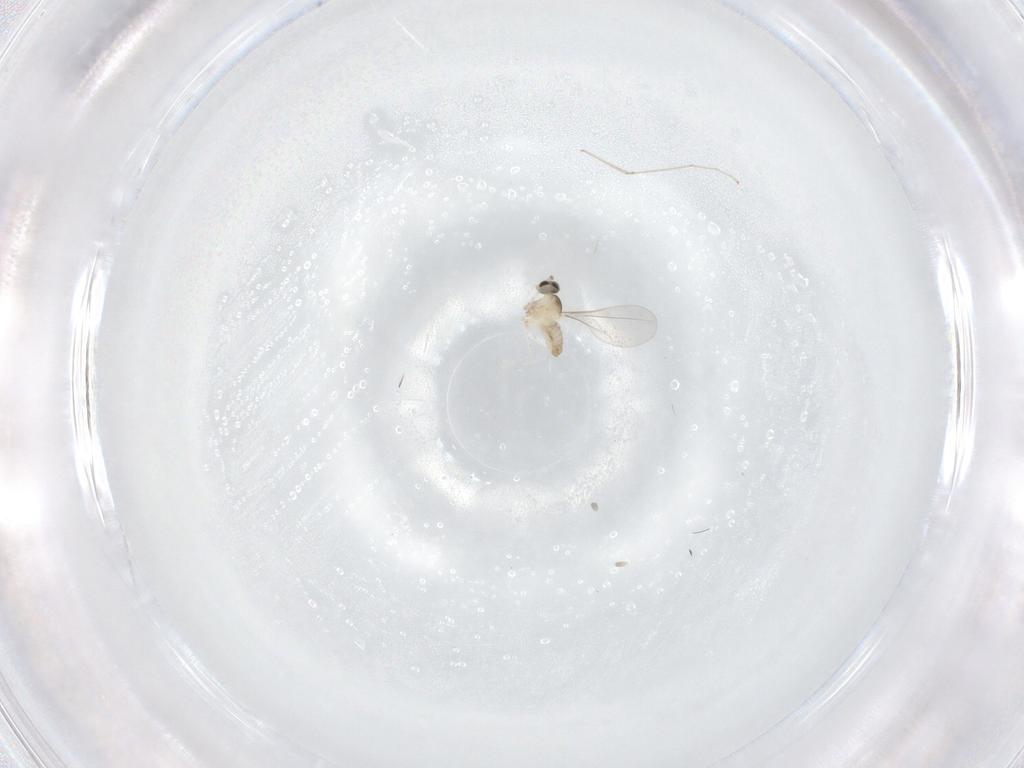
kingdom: Animalia
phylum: Arthropoda
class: Insecta
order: Diptera
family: Cecidomyiidae
